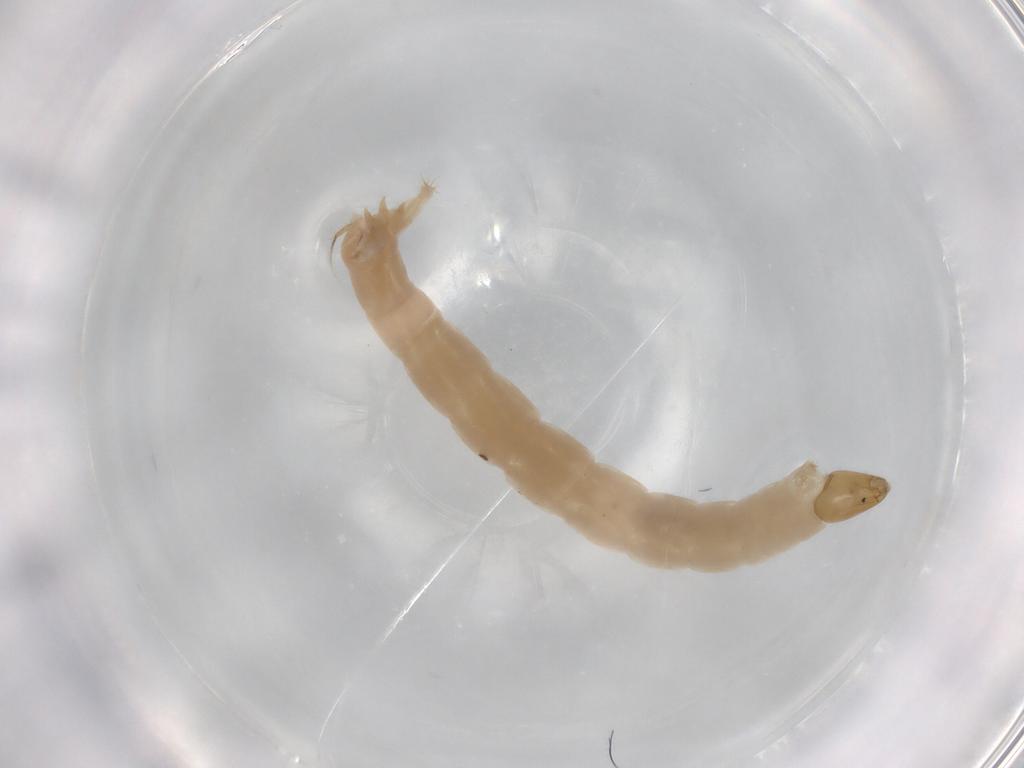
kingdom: Animalia
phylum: Arthropoda
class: Insecta
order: Diptera
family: Chironomidae
